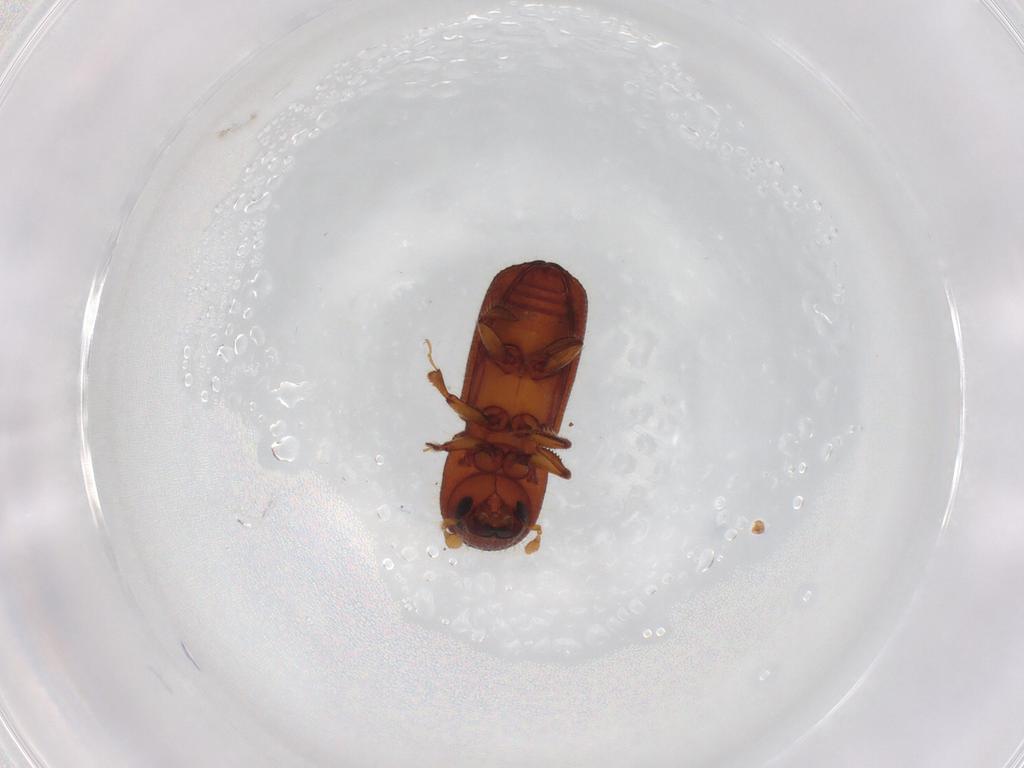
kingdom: Animalia
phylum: Arthropoda
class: Insecta
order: Coleoptera
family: Curculionidae
